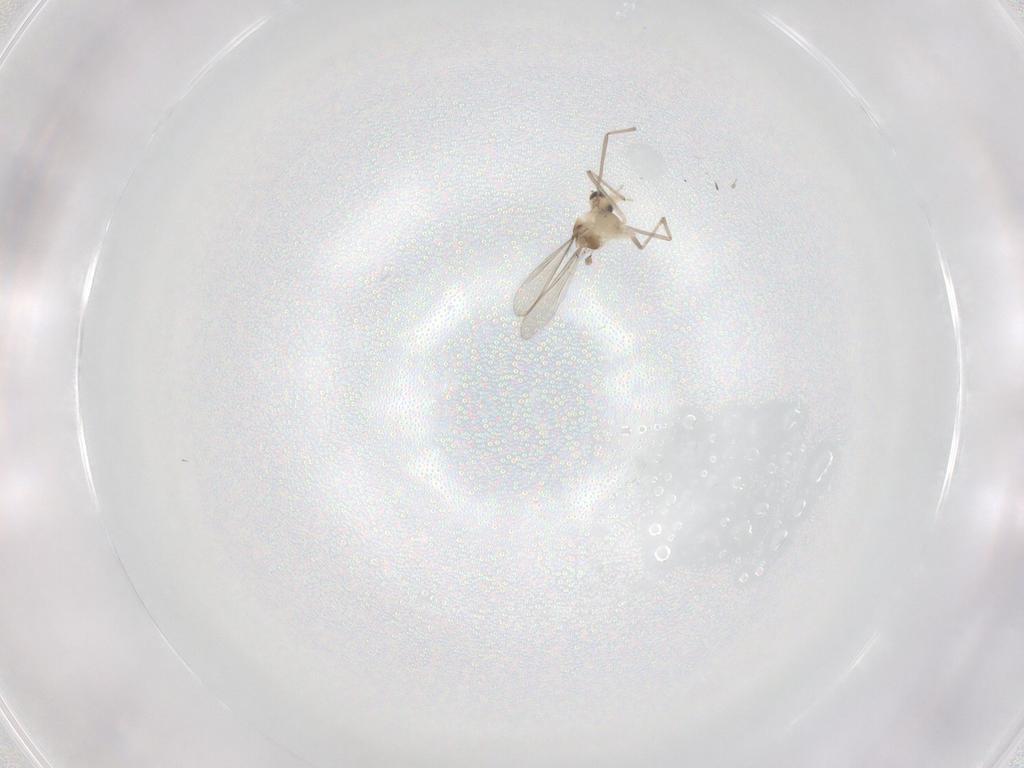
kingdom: Animalia
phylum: Arthropoda
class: Insecta
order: Diptera
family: Chironomidae
